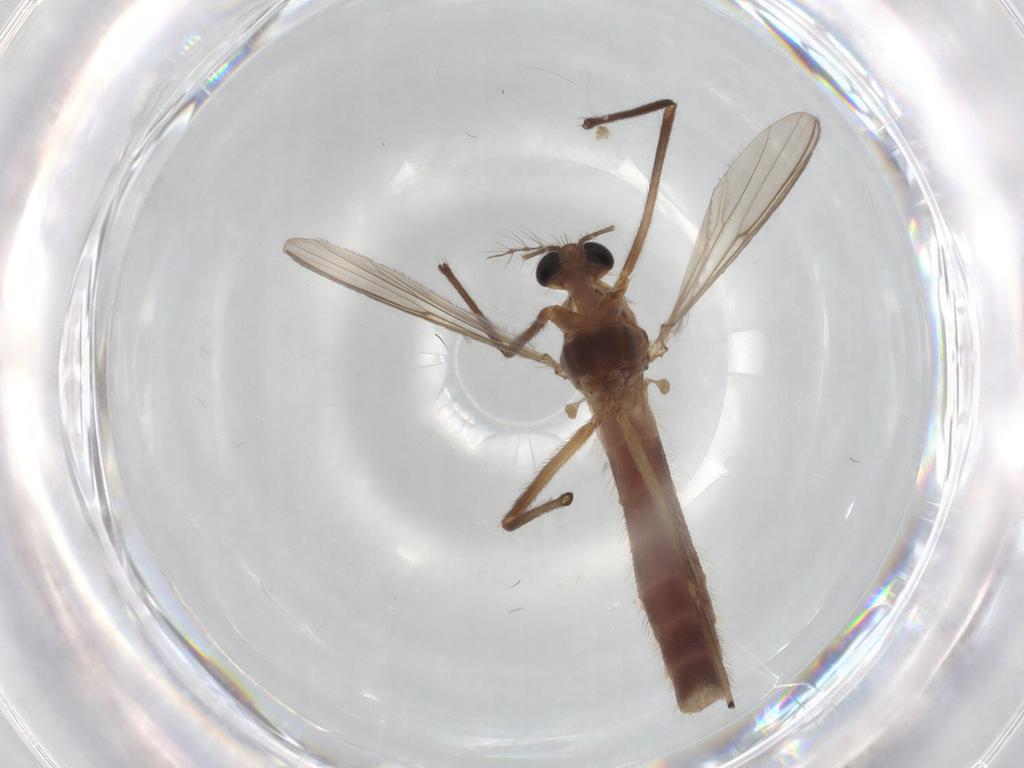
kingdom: Animalia
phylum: Arthropoda
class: Insecta
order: Diptera
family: Chironomidae
